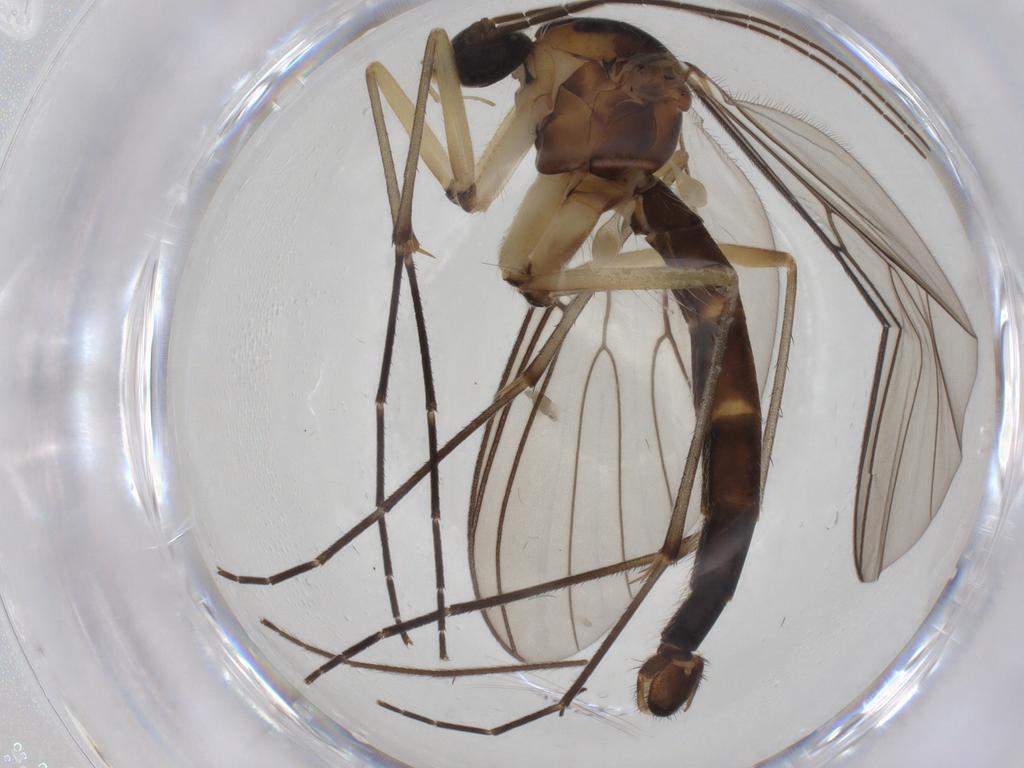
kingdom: Animalia
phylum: Arthropoda
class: Insecta
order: Diptera
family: Mycetophilidae
